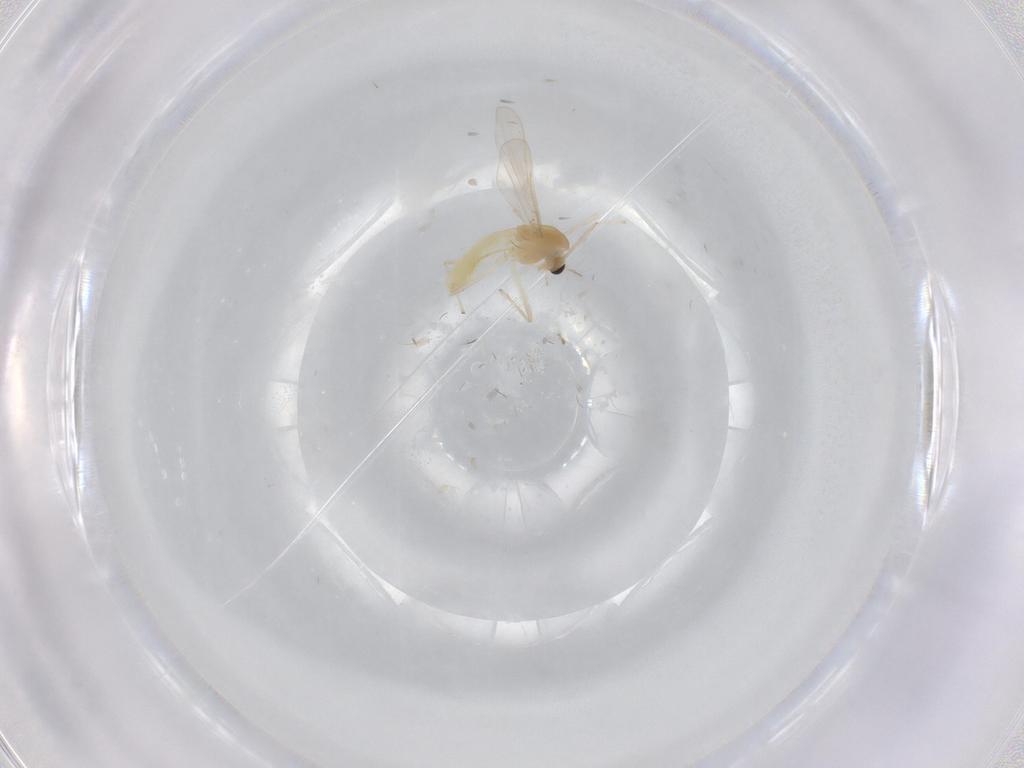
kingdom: Animalia
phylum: Arthropoda
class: Insecta
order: Diptera
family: Chironomidae
